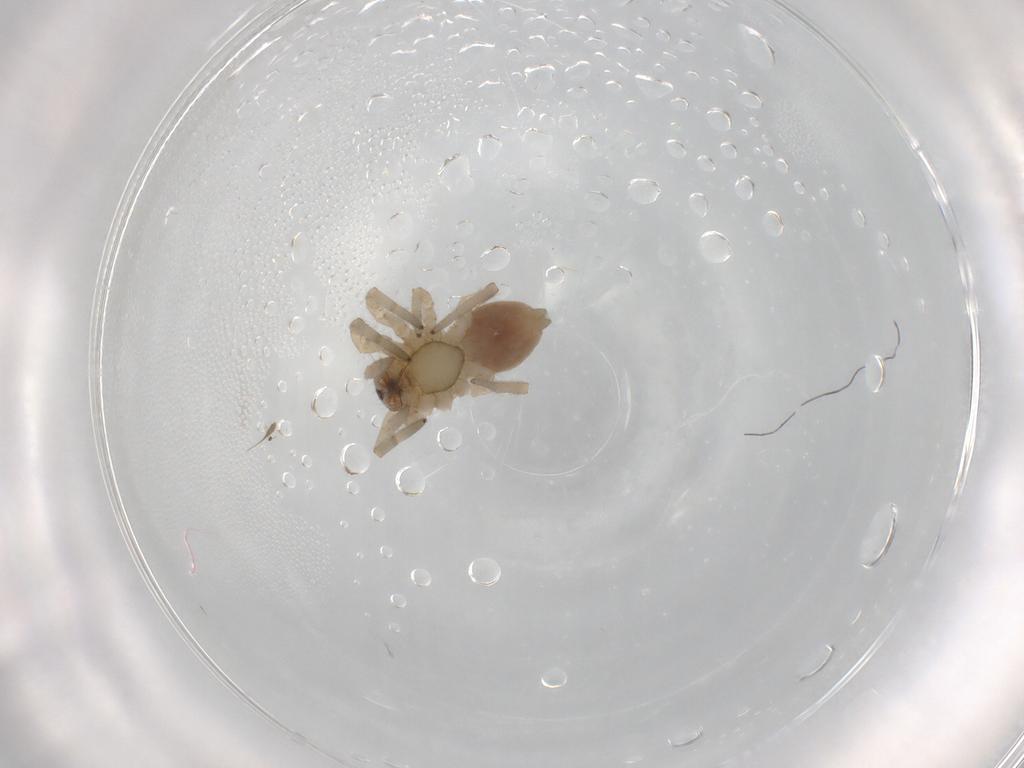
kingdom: Animalia
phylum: Arthropoda
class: Arachnida
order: Araneae
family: Trachelidae
